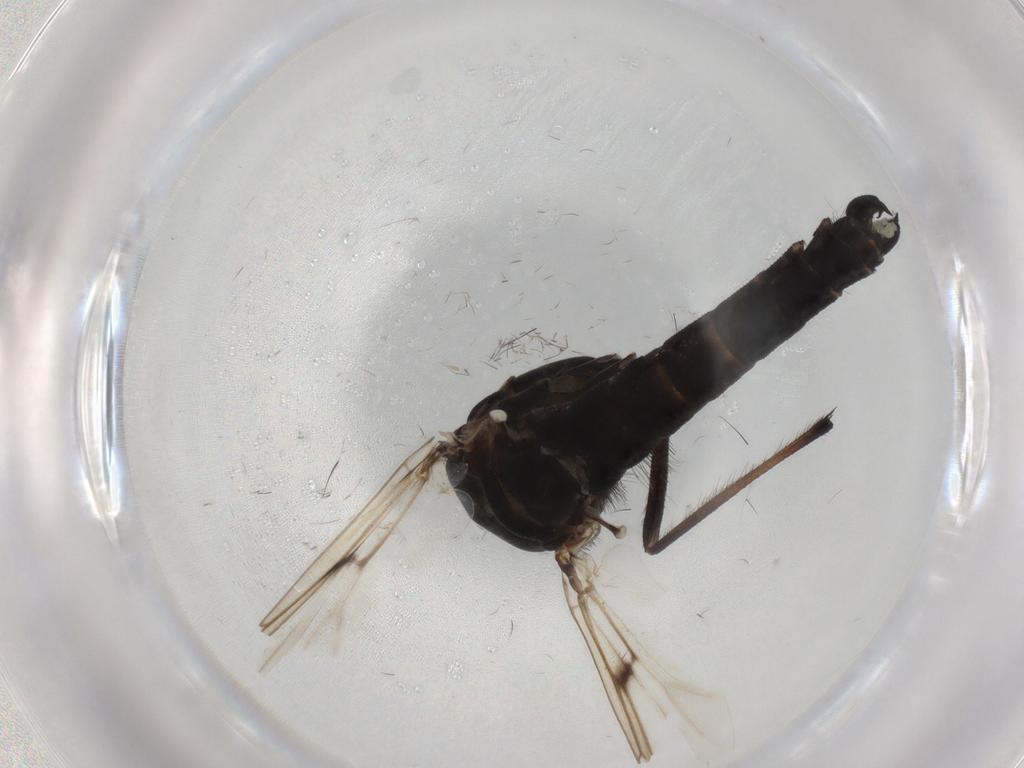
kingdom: Animalia
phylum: Arthropoda
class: Insecta
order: Diptera
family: Chironomidae
